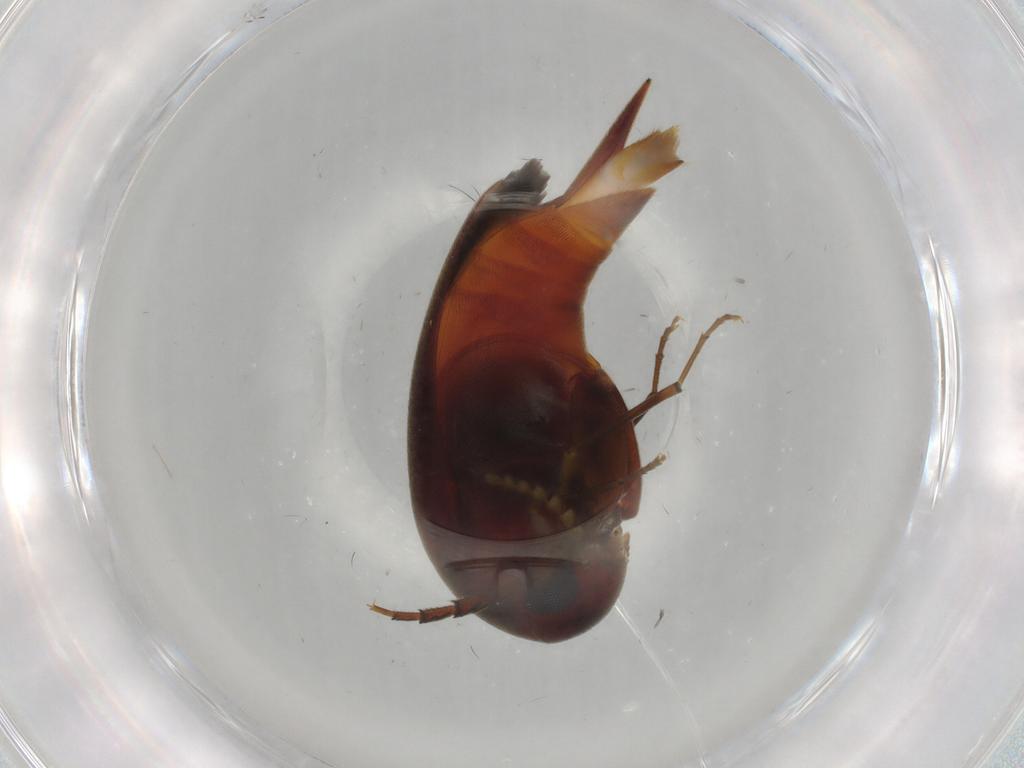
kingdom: Animalia
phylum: Arthropoda
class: Insecta
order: Coleoptera
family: Mordellidae
